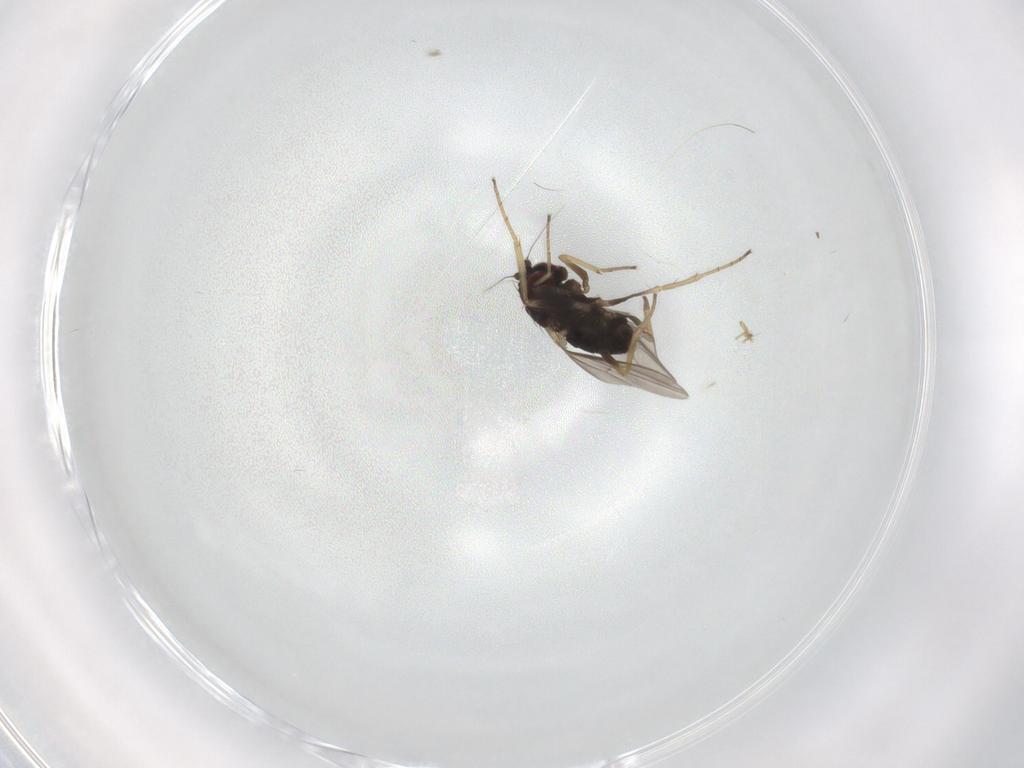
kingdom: Animalia
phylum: Arthropoda
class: Insecta
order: Diptera
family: Dolichopodidae
